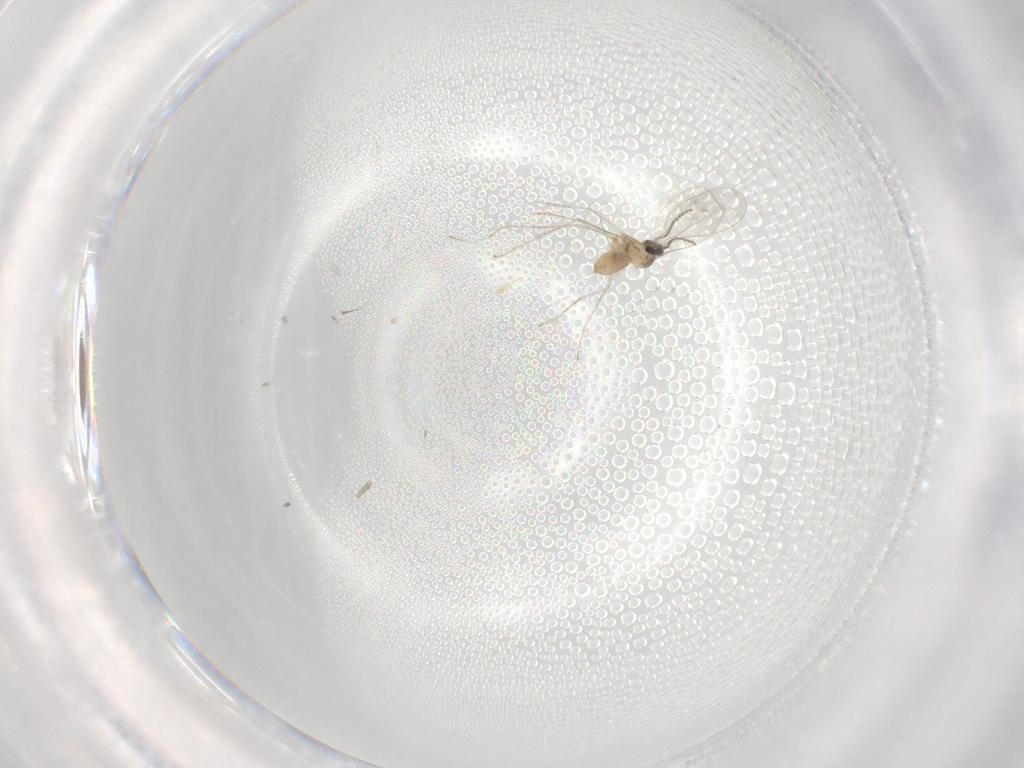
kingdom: Animalia
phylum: Arthropoda
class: Insecta
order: Diptera
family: Cecidomyiidae
